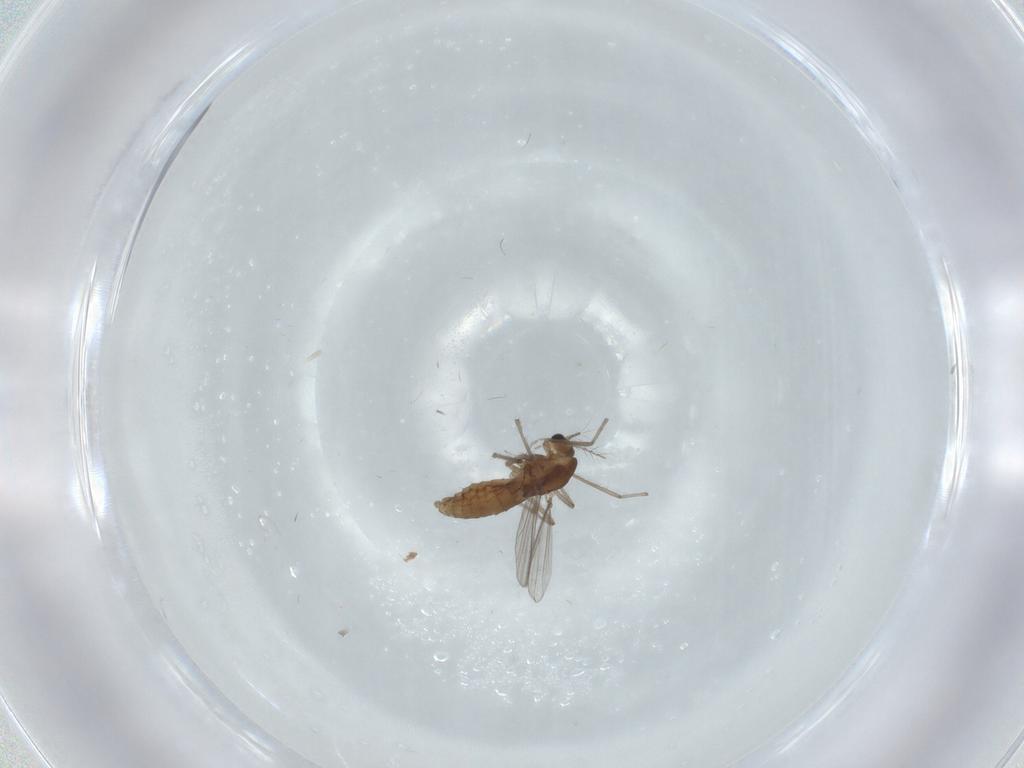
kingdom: Animalia
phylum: Arthropoda
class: Insecta
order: Diptera
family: Chironomidae
